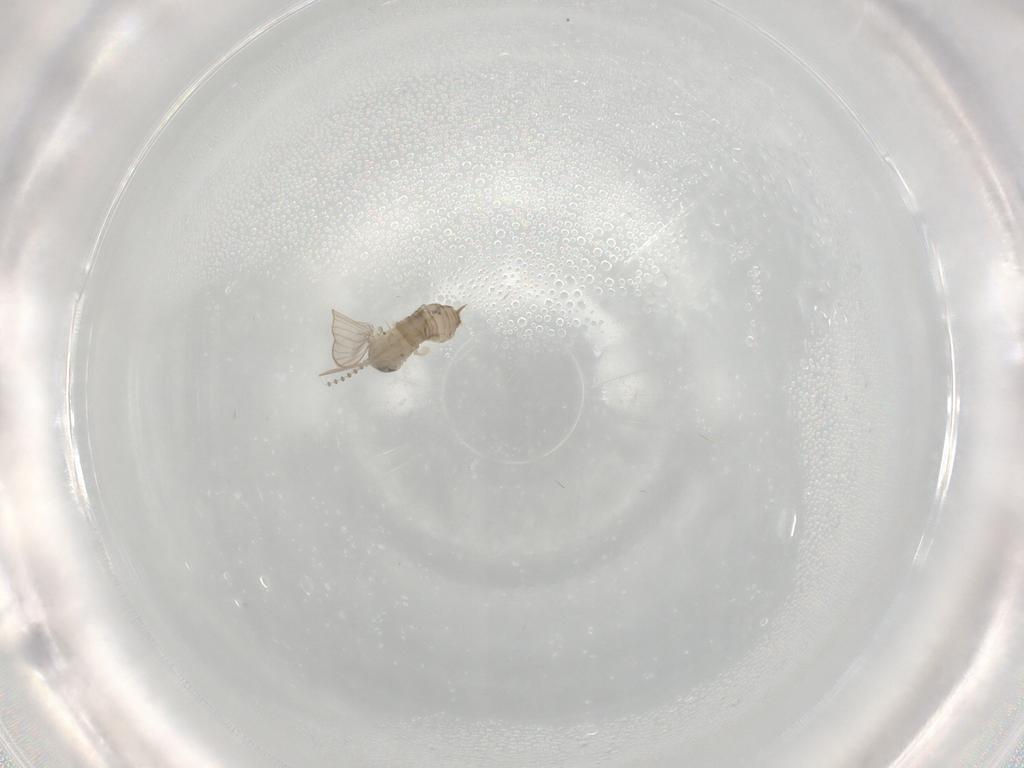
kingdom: Animalia
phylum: Arthropoda
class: Insecta
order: Diptera
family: Psychodidae
